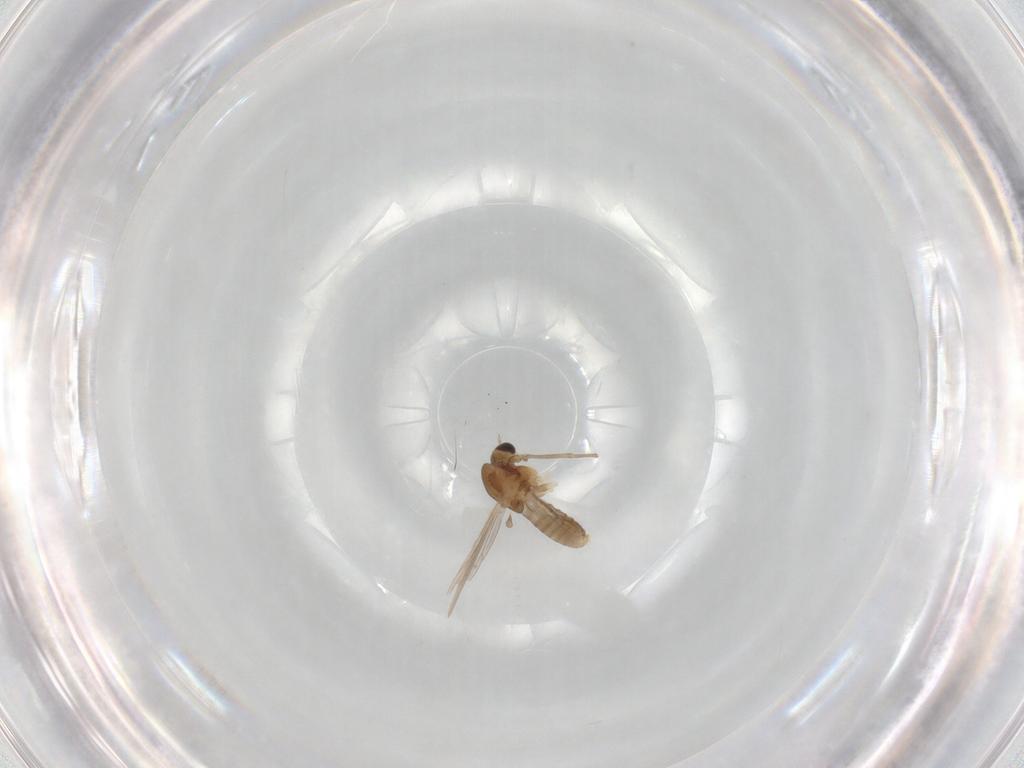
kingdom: Animalia
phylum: Arthropoda
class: Insecta
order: Diptera
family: Chironomidae
